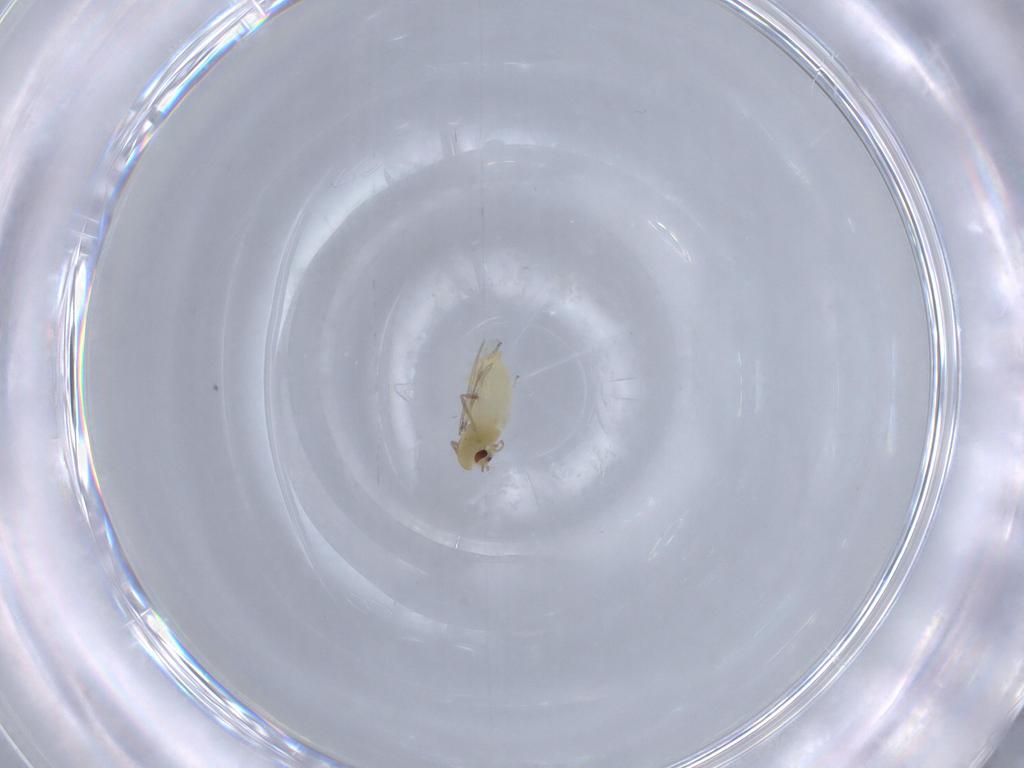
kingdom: Animalia
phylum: Arthropoda
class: Insecta
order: Diptera
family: Chironomidae
